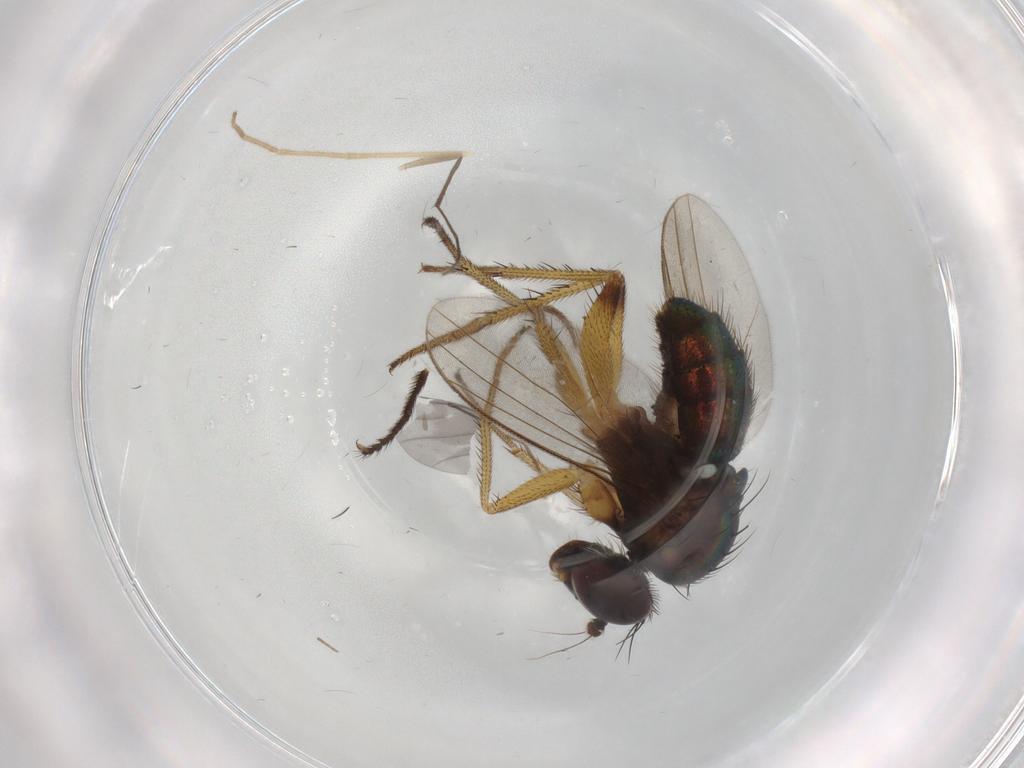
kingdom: Animalia
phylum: Arthropoda
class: Insecta
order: Diptera
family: Dolichopodidae
